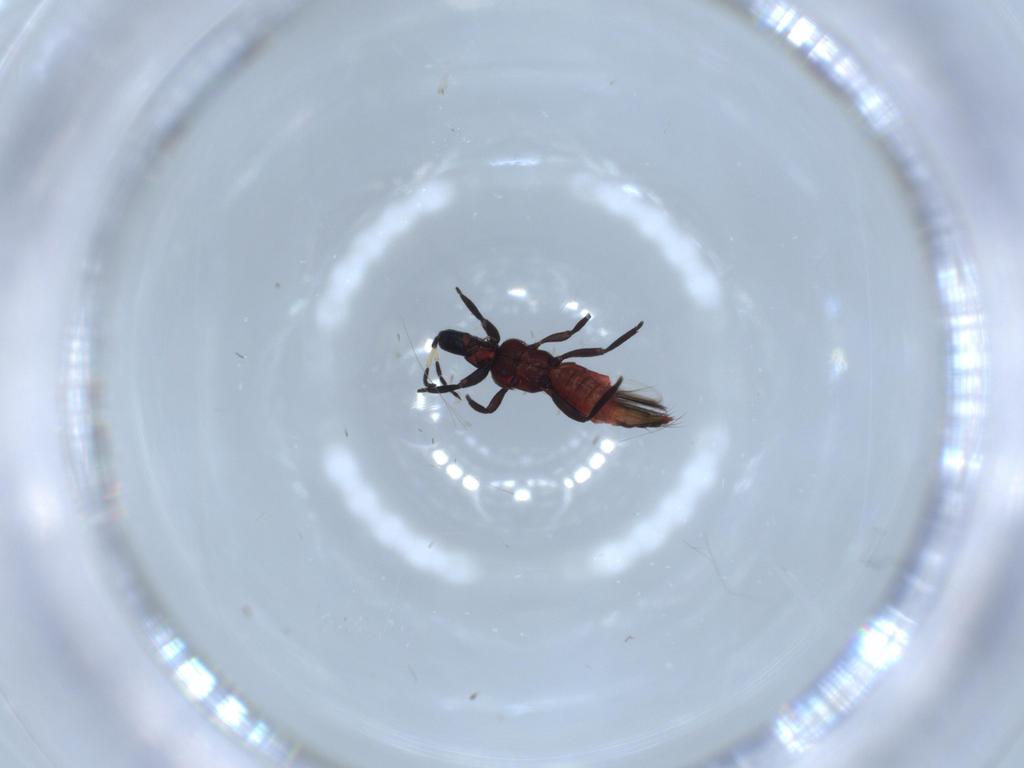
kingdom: Animalia
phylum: Arthropoda
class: Insecta
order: Thysanoptera
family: Aeolothripidae
